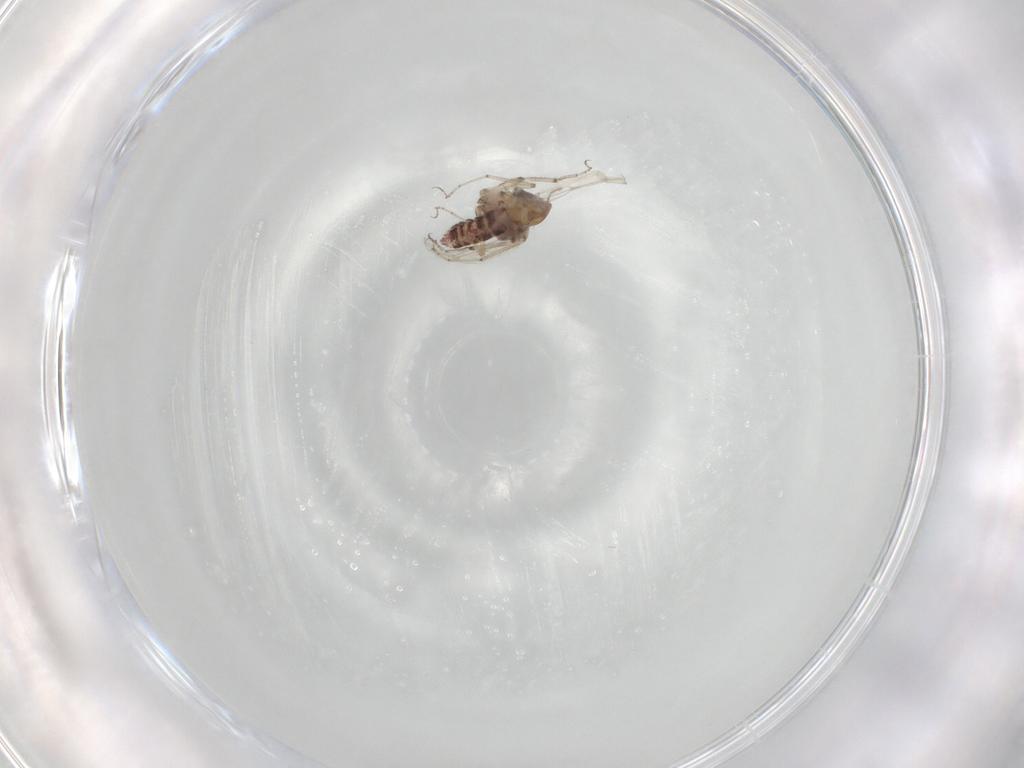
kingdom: Animalia
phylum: Arthropoda
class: Insecta
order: Diptera
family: Ceratopogonidae
